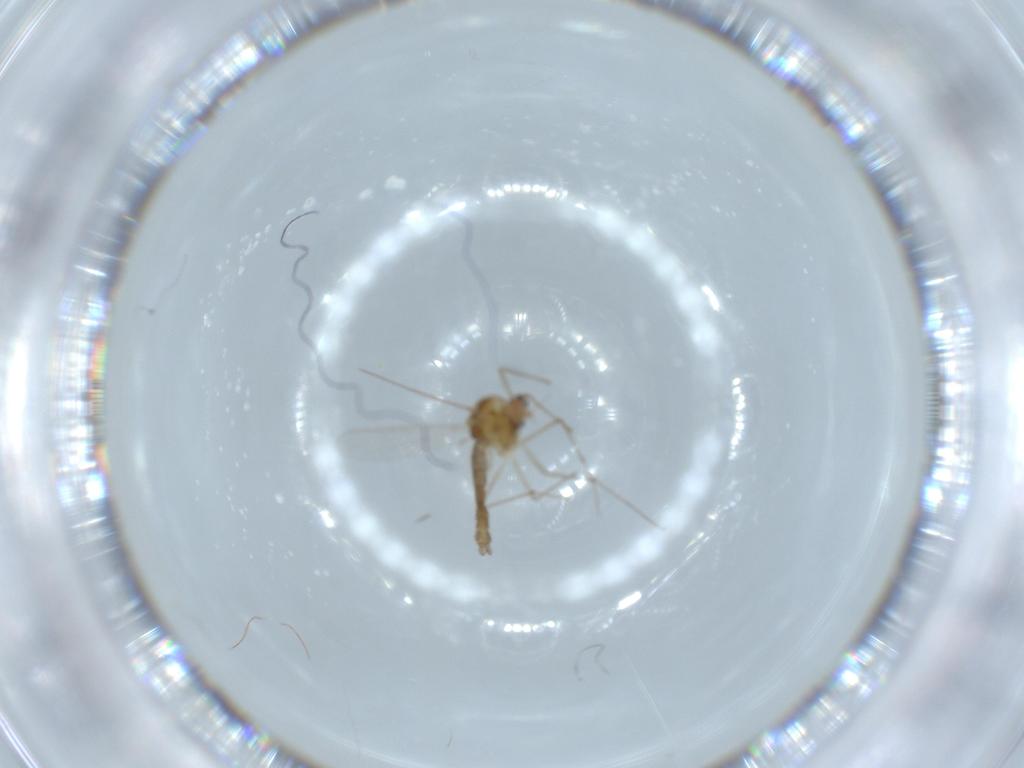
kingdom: Animalia
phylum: Arthropoda
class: Insecta
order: Diptera
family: Chironomidae
